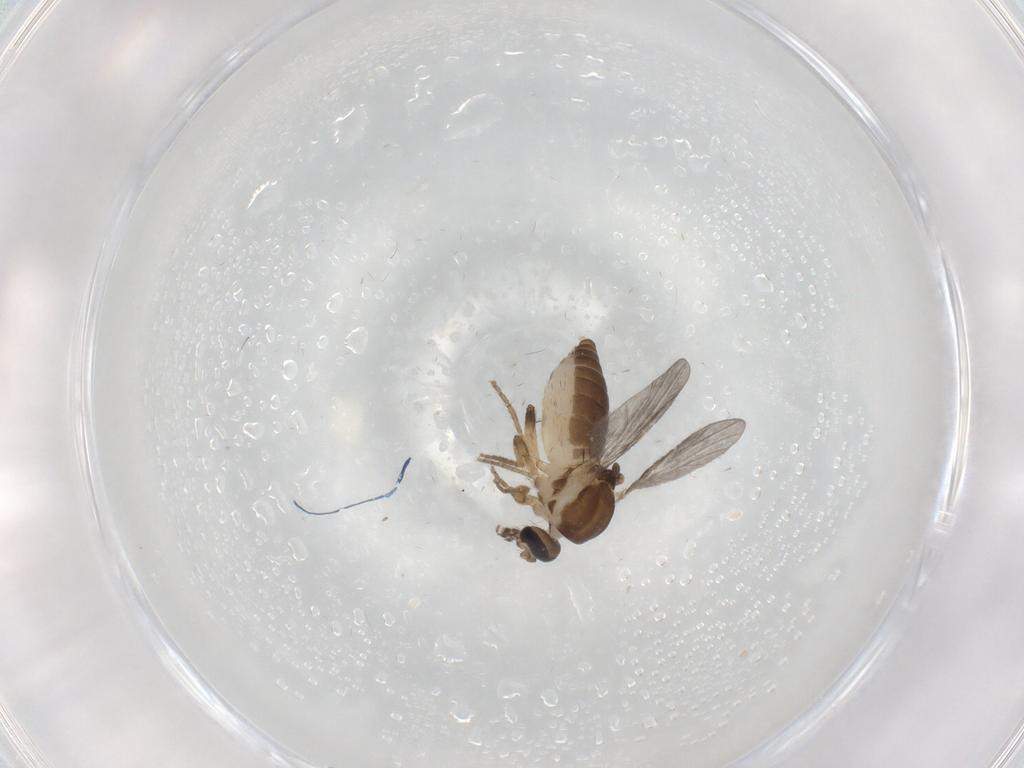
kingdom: Animalia
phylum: Arthropoda
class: Insecta
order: Diptera
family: Ceratopogonidae
